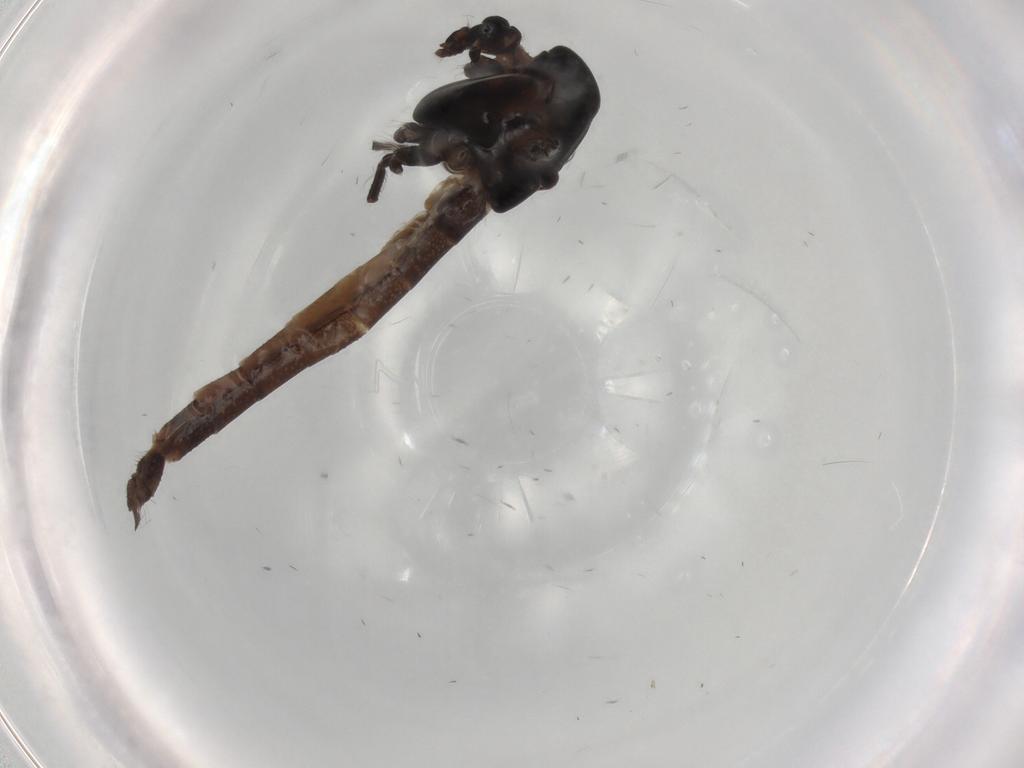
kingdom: Animalia
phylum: Arthropoda
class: Insecta
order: Diptera
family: Chironomidae
